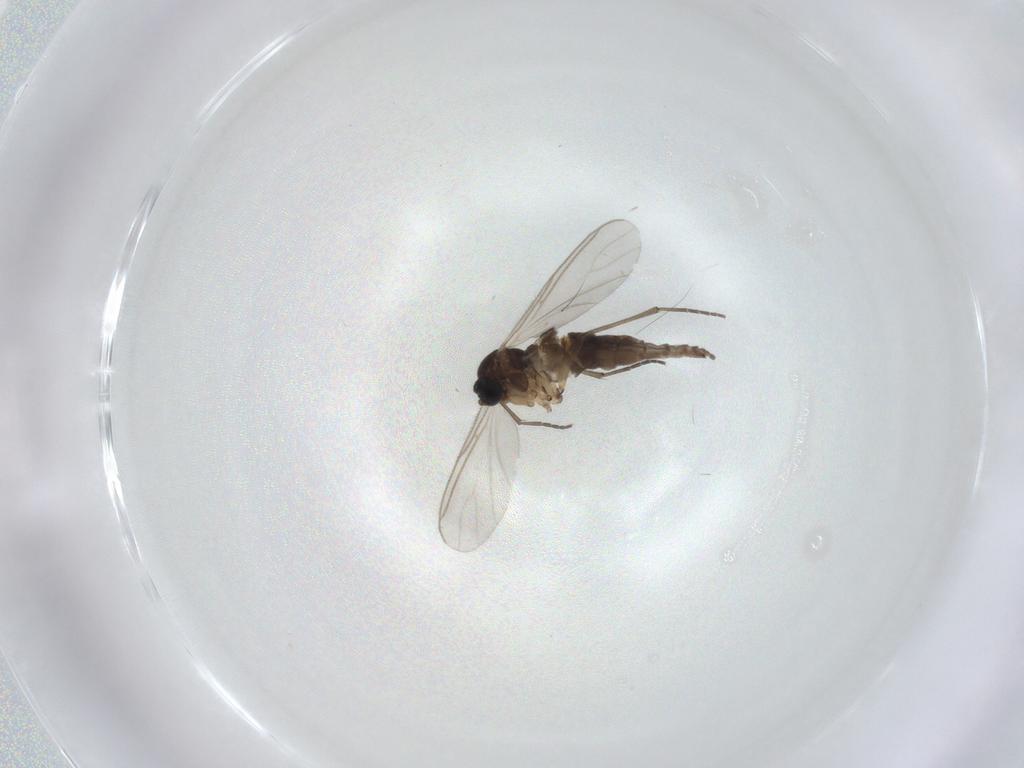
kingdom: Animalia
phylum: Arthropoda
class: Insecta
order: Diptera
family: Sciaridae
